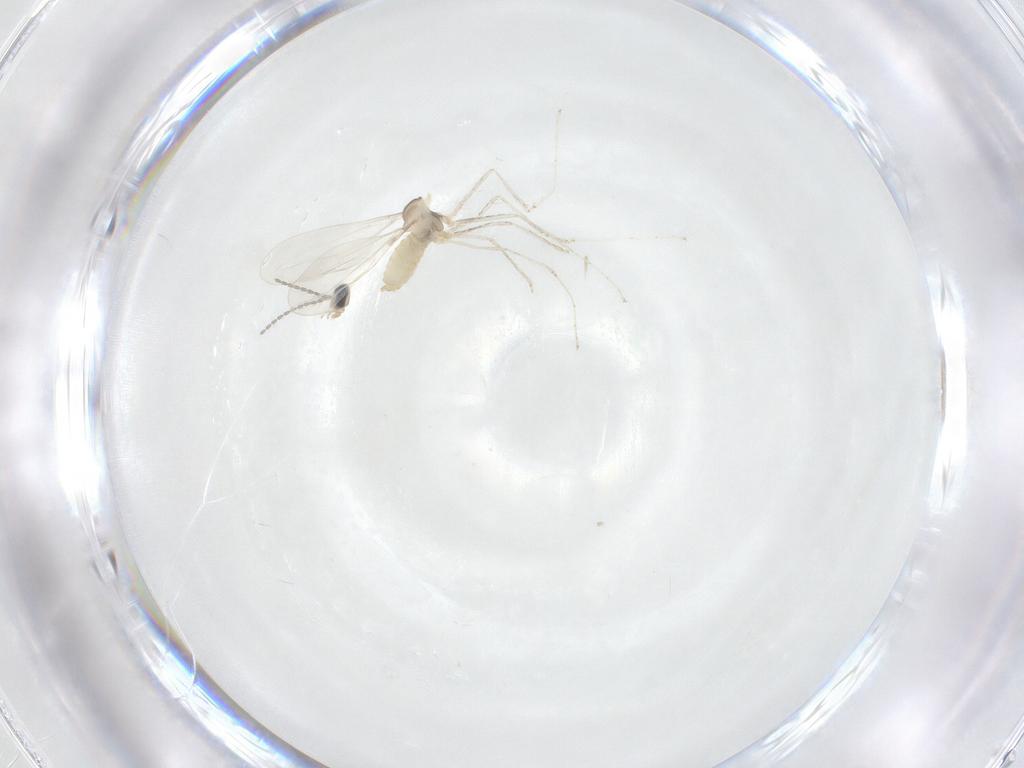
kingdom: Animalia
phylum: Arthropoda
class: Insecta
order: Diptera
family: Cecidomyiidae
